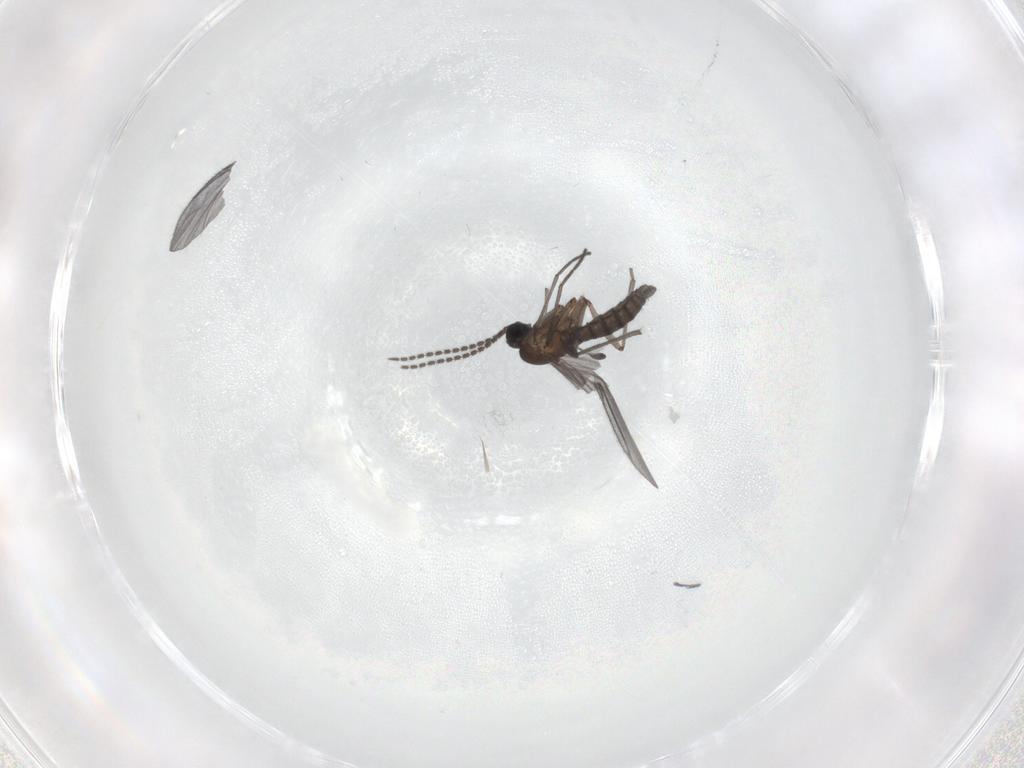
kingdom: Animalia
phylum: Arthropoda
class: Insecta
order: Diptera
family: Sciaridae
